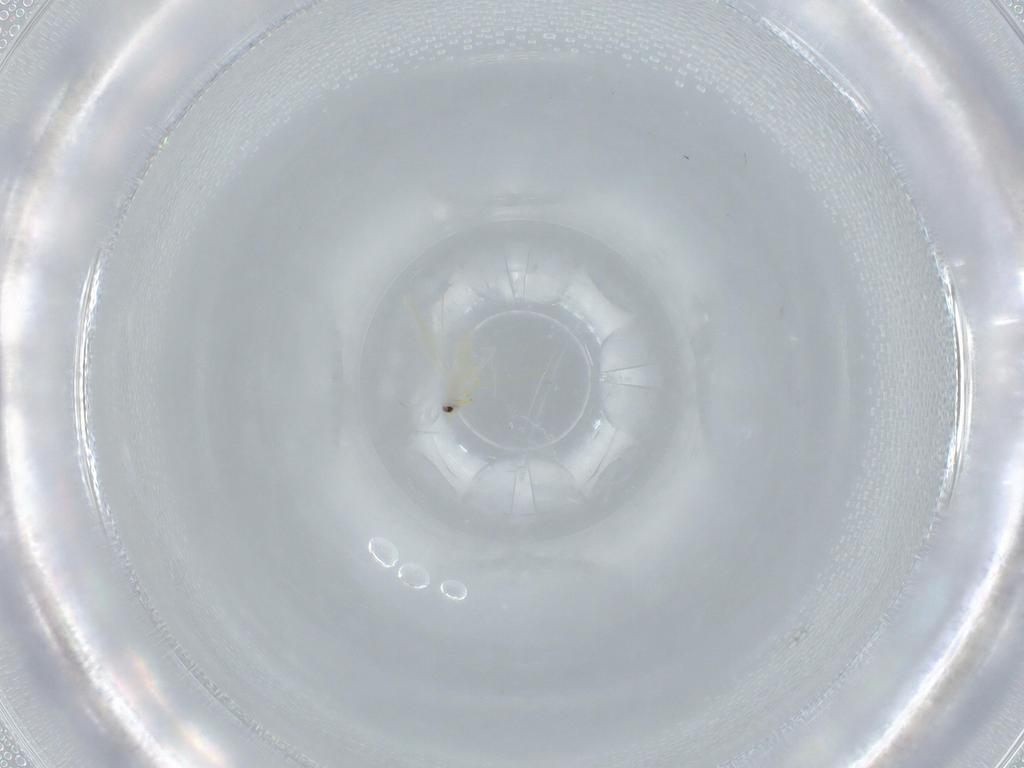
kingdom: Animalia
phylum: Arthropoda
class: Insecta
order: Hemiptera
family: Aleyrodidae
